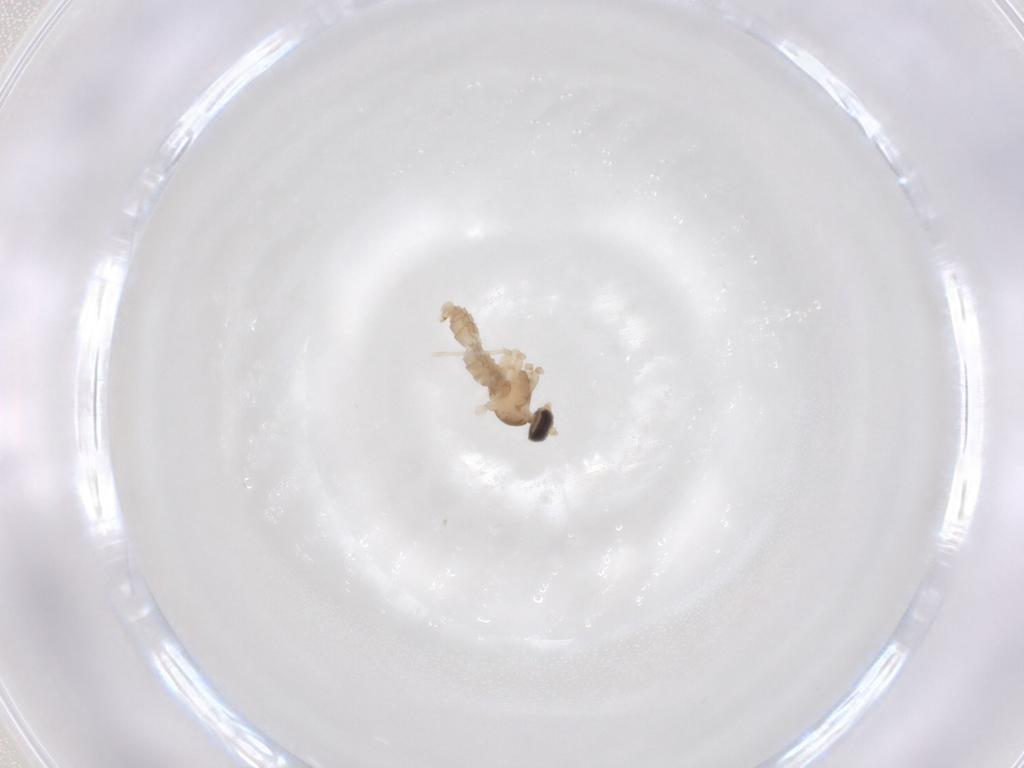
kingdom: Animalia
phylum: Arthropoda
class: Insecta
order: Diptera
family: Cecidomyiidae
